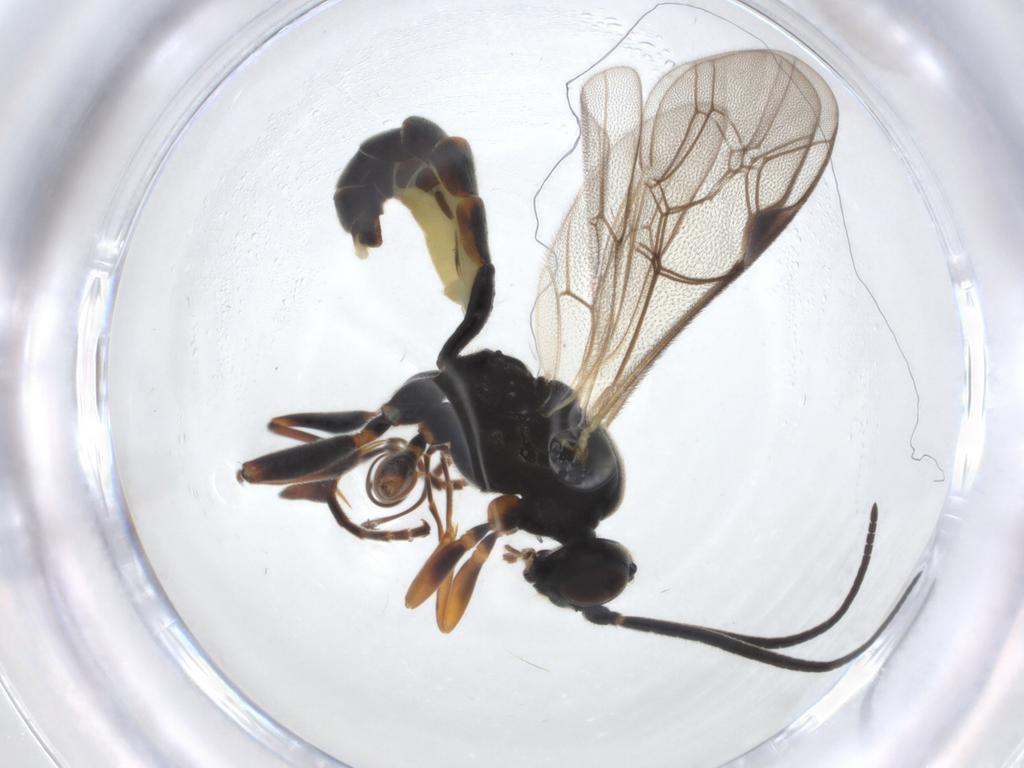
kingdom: Animalia
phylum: Arthropoda
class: Insecta
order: Hymenoptera
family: Ichneumonidae
